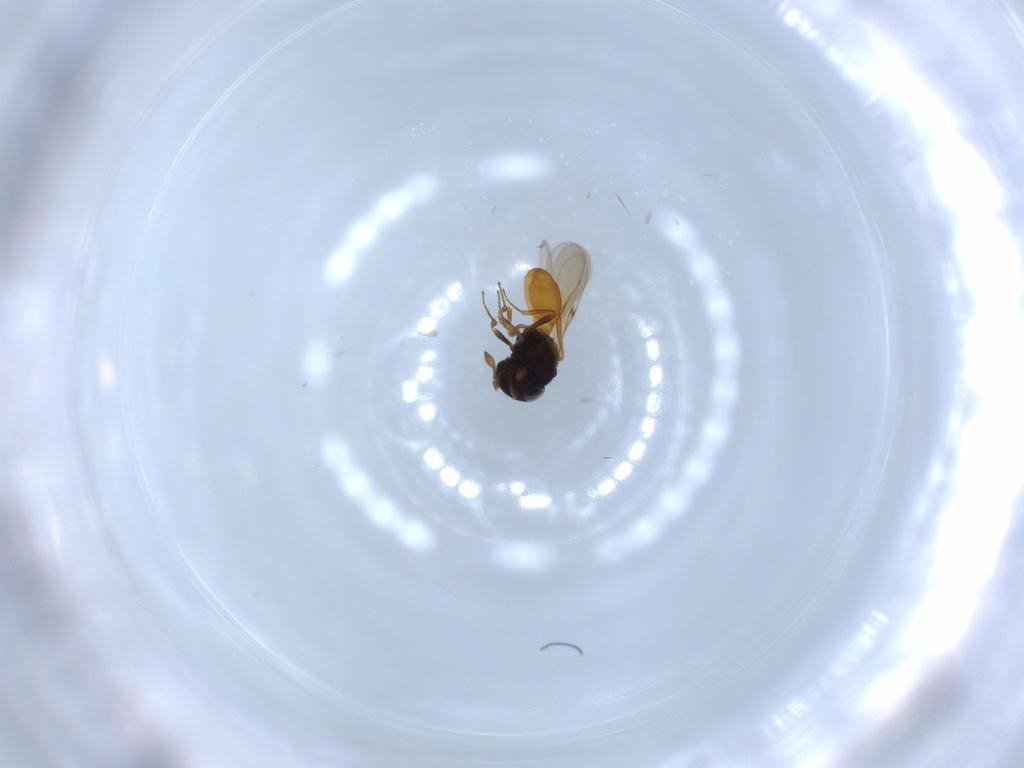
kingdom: Animalia
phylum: Arthropoda
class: Insecta
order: Hymenoptera
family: Scelionidae
